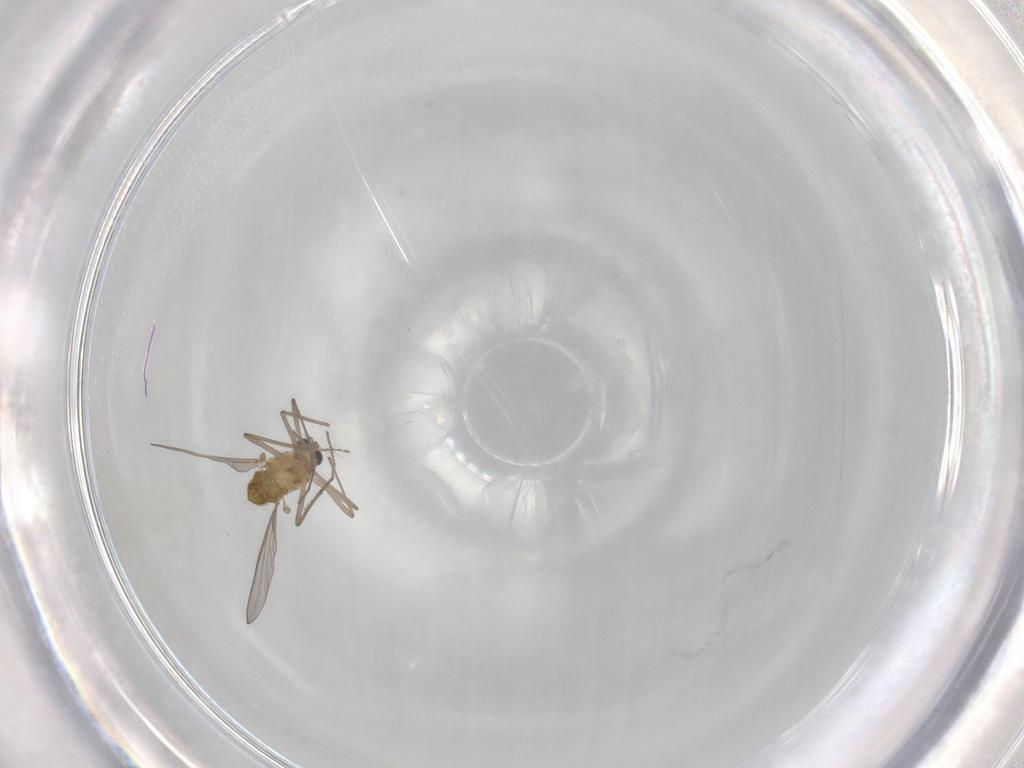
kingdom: Animalia
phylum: Arthropoda
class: Insecta
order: Diptera
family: Chironomidae
